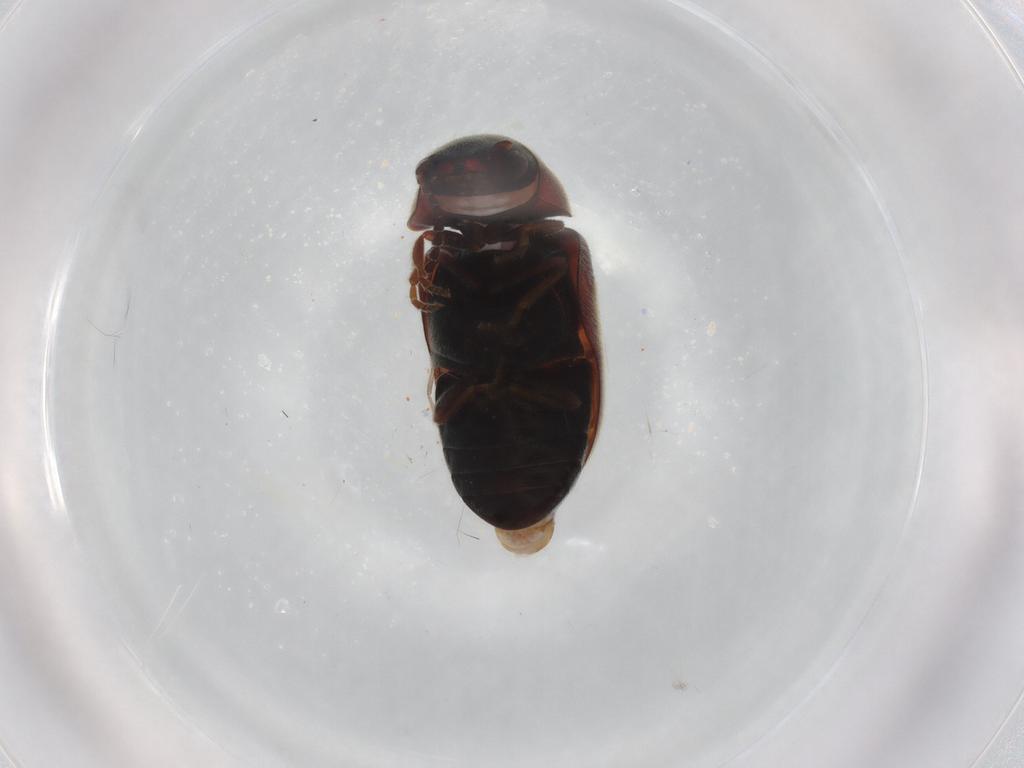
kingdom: Animalia
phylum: Arthropoda
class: Insecta
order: Coleoptera
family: Ptinidae
